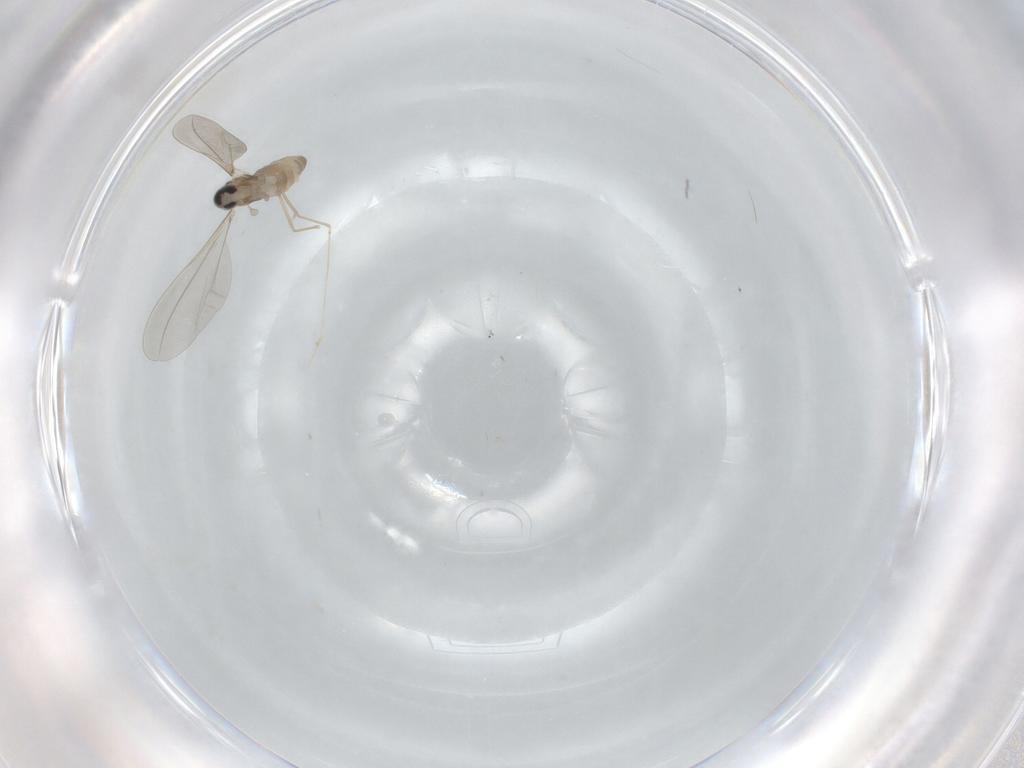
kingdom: Animalia
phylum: Arthropoda
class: Insecta
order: Diptera
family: Cecidomyiidae
